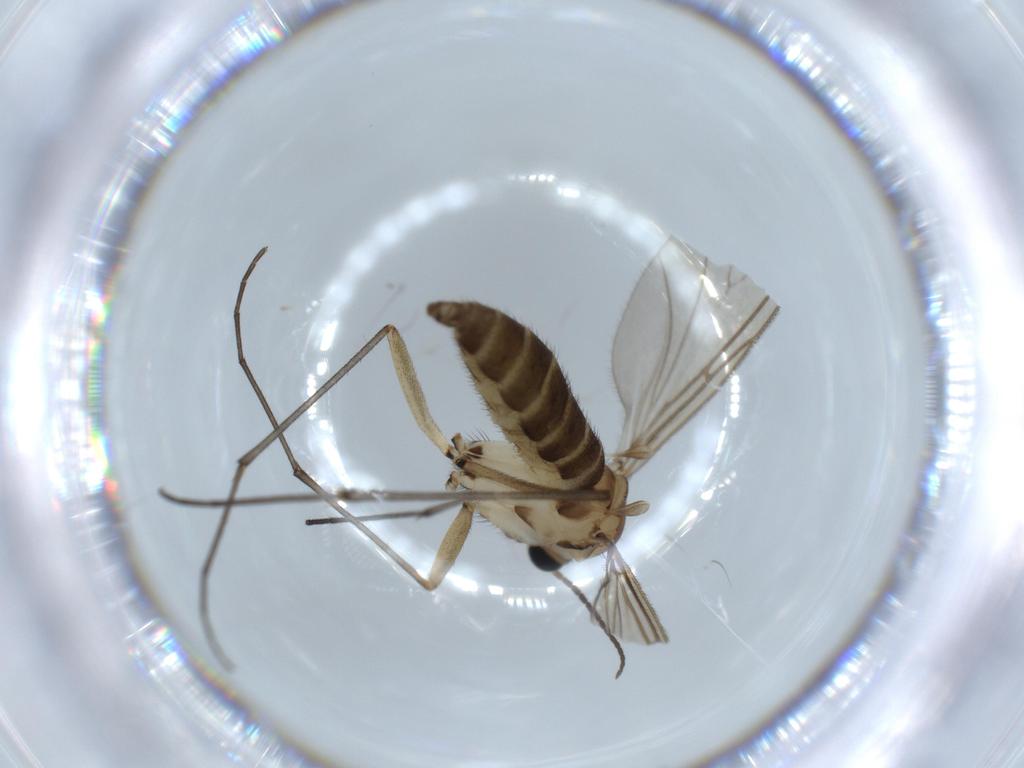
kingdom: Animalia
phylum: Arthropoda
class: Insecta
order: Diptera
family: Sciaridae
